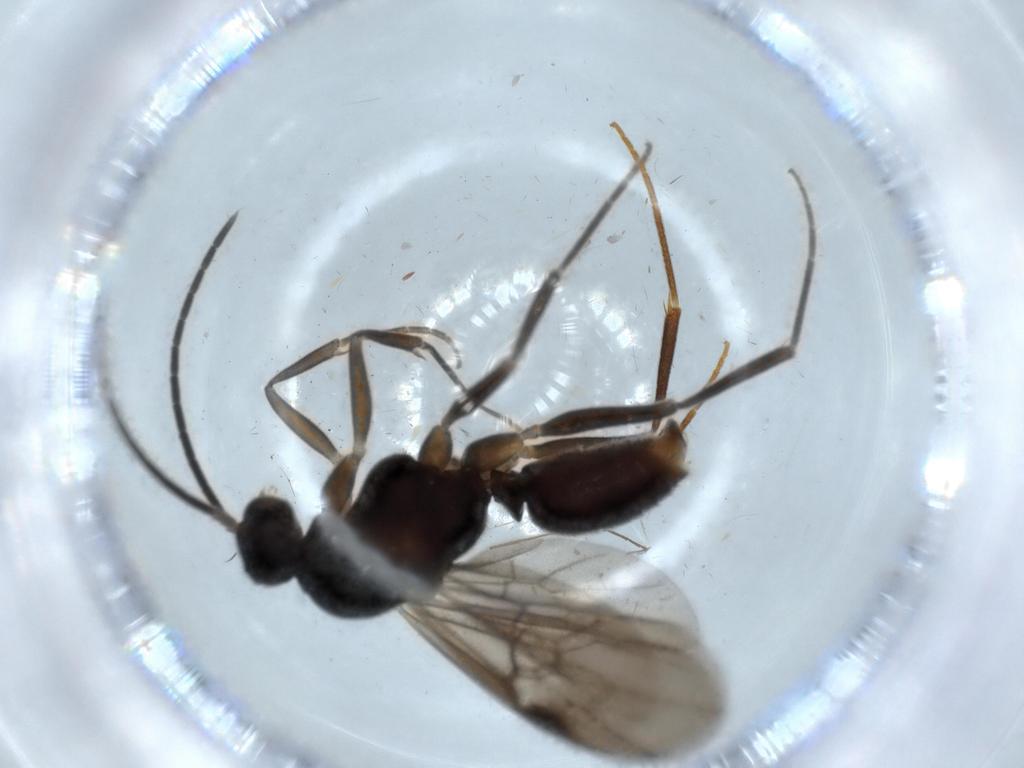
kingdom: Animalia
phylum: Arthropoda
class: Insecta
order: Hymenoptera
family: Formicidae
